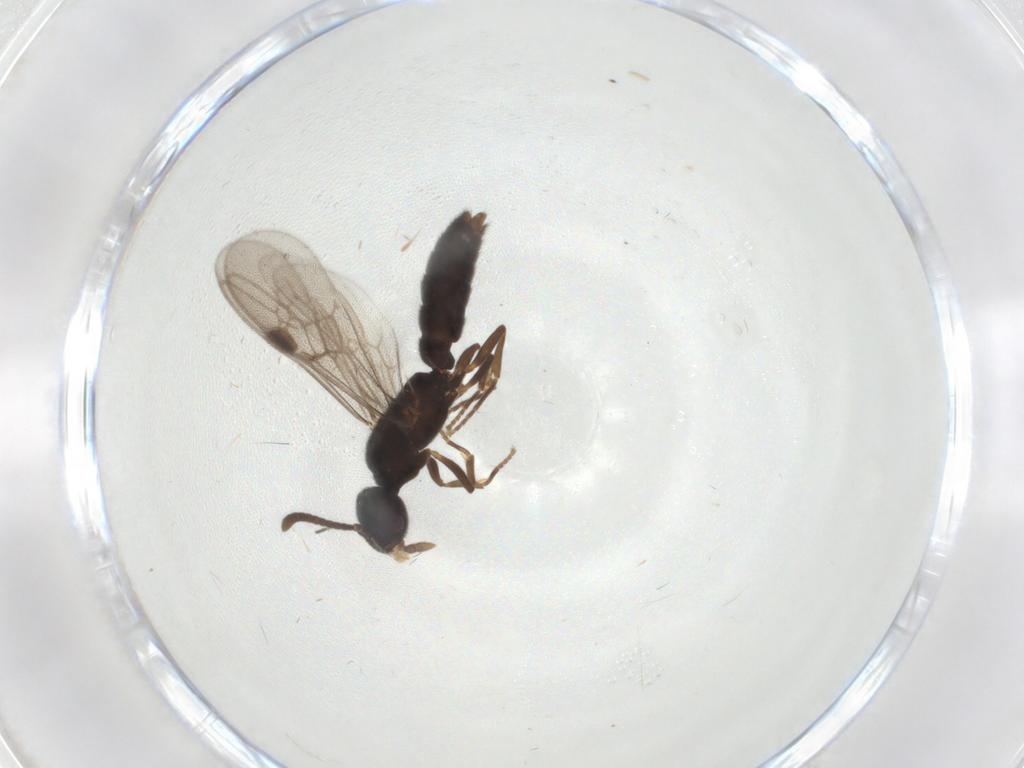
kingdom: Animalia
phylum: Arthropoda
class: Insecta
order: Hymenoptera
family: Formicidae
